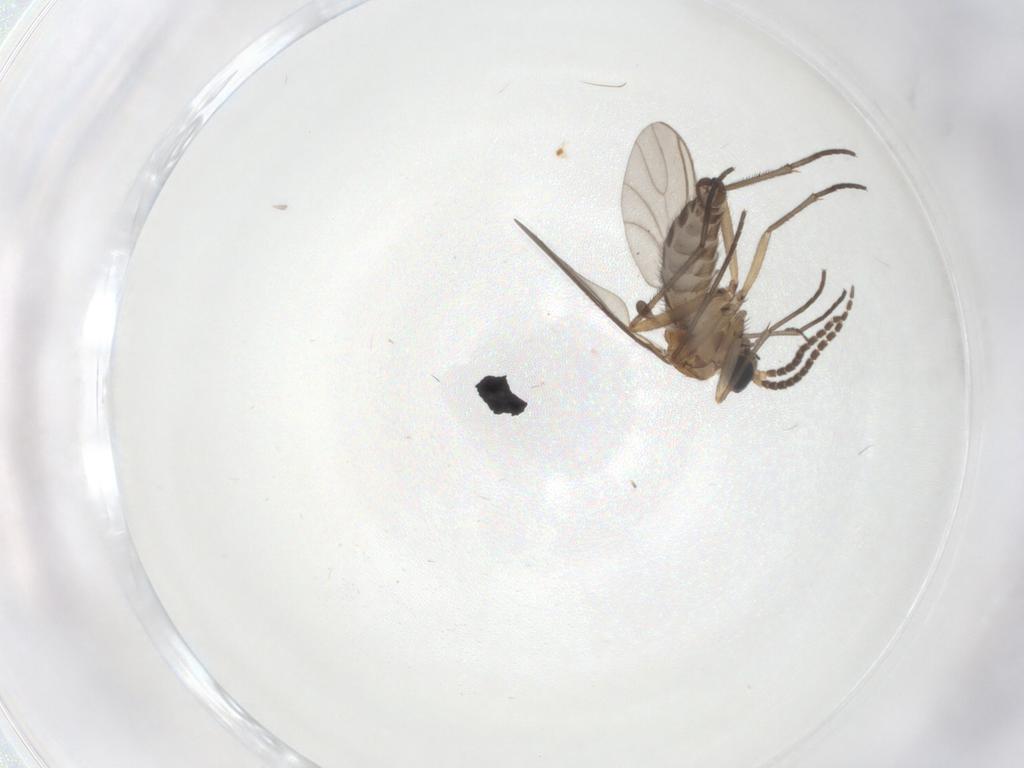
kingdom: Animalia
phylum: Arthropoda
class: Insecta
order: Diptera
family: Sciaridae
